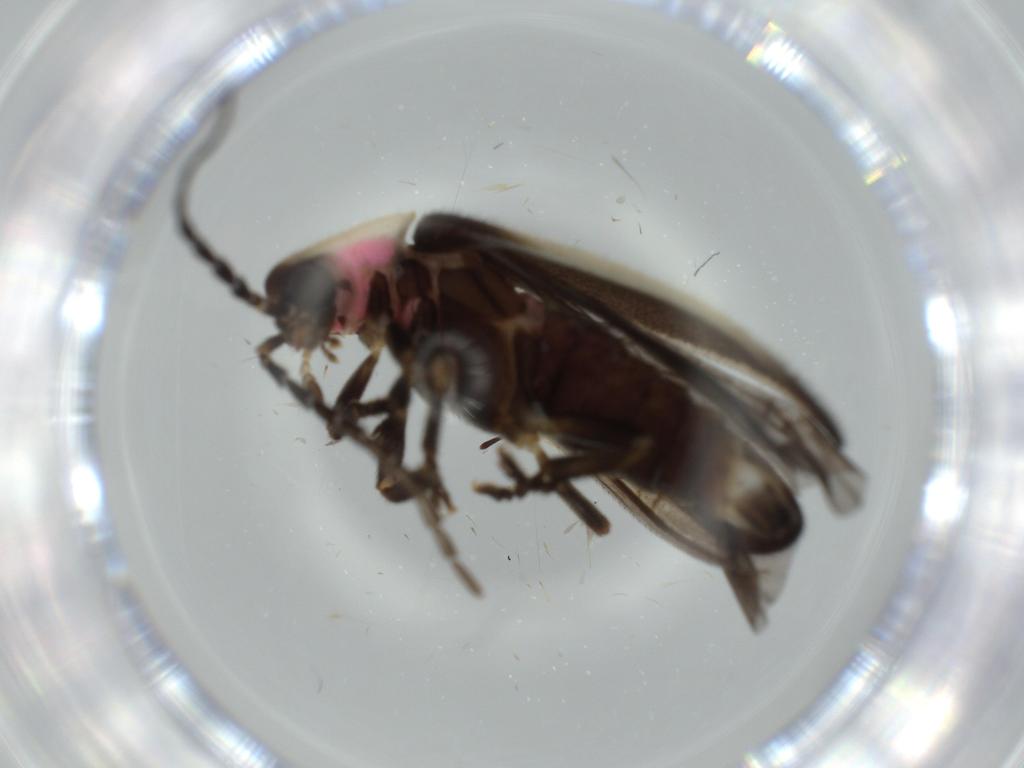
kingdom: Animalia
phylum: Arthropoda
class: Insecta
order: Coleoptera
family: Lampyridae
